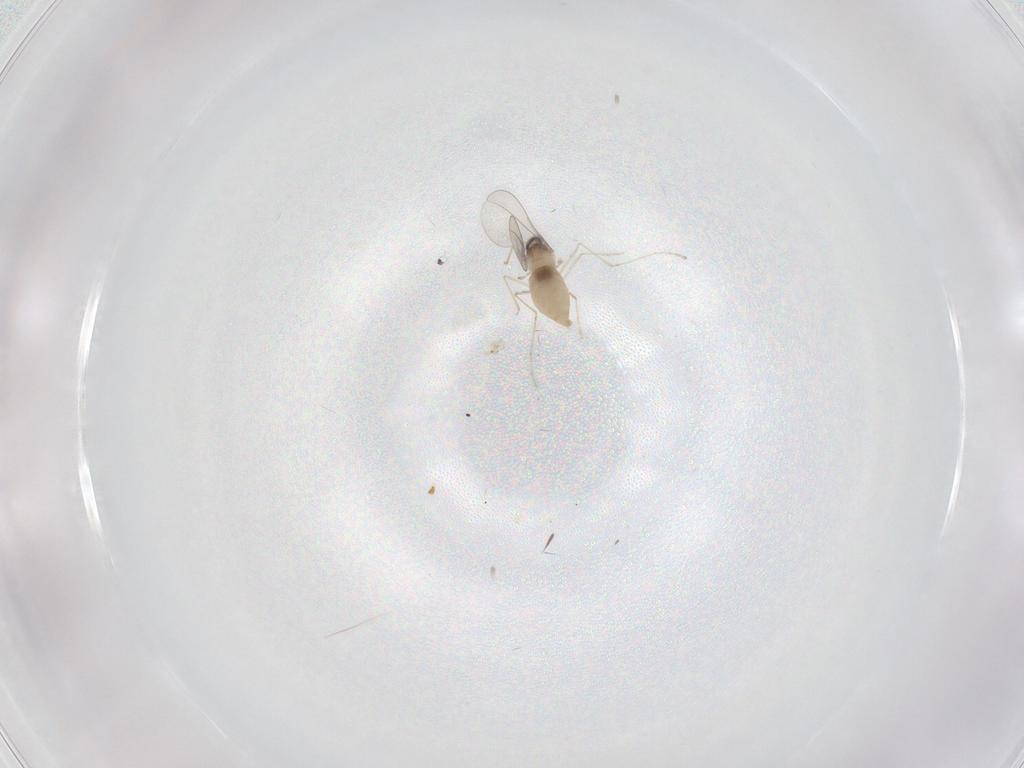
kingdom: Animalia
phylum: Arthropoda
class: Insecta
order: Diptera
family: Scatopsidae
